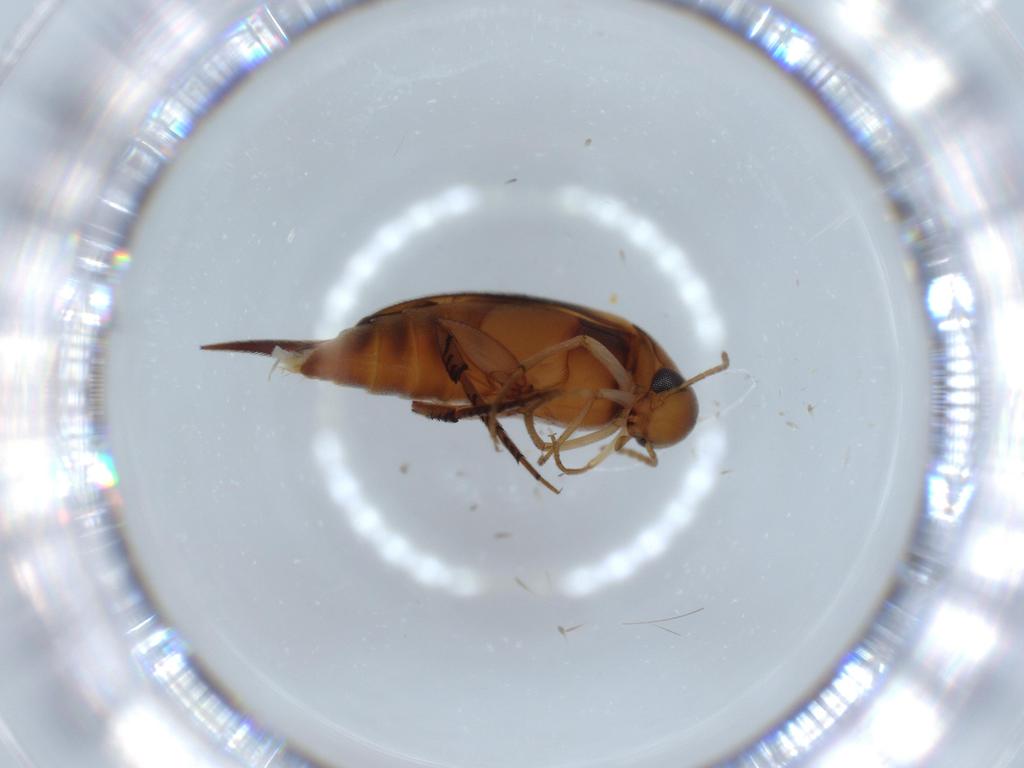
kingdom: Animalia
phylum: Arthropoda
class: Insecta
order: Coleoptera
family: Mordellidae
